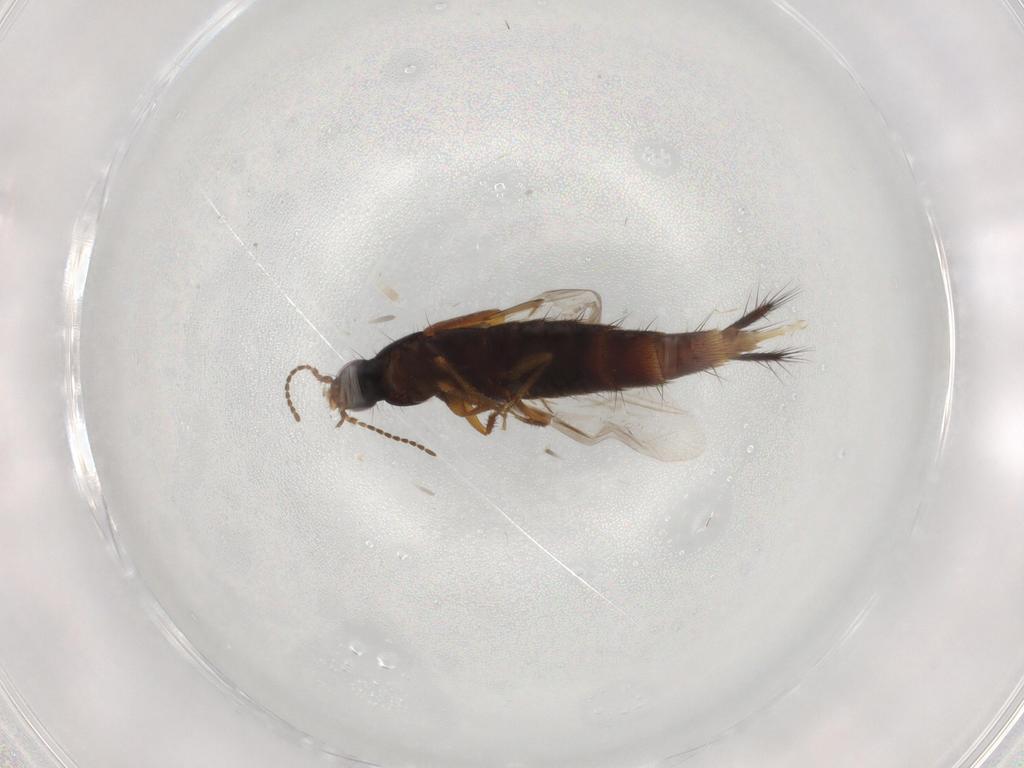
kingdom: Animalia
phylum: Arthropoda
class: Insecta
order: Coleoptera
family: Staphylinidae
